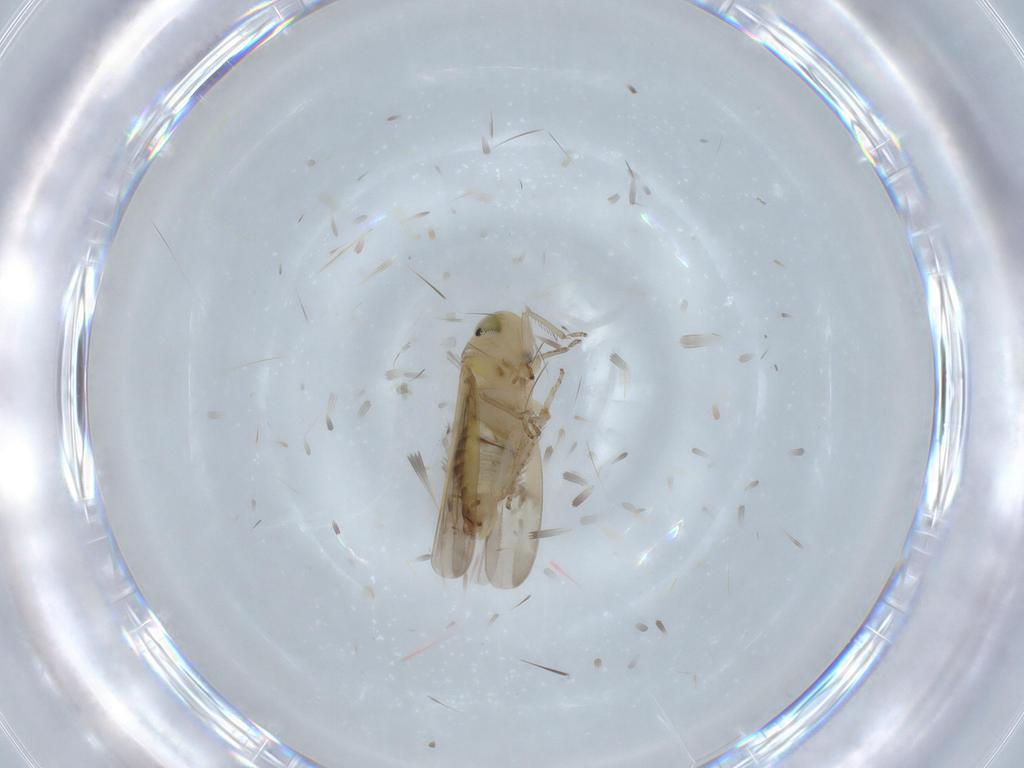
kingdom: Animalia
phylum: Arthropoda
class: Insecta
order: Hemiptera
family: Cicadellidae
